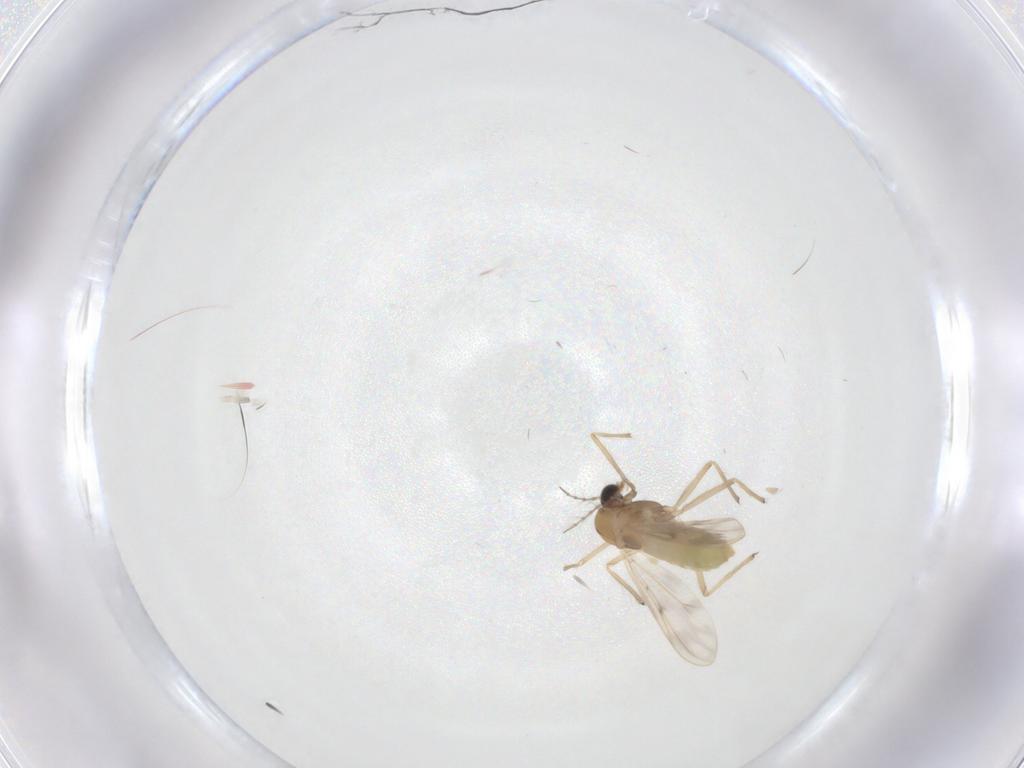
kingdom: Animalia
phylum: Arthropoda
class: Insecta
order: Diptera
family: Chironomidae
